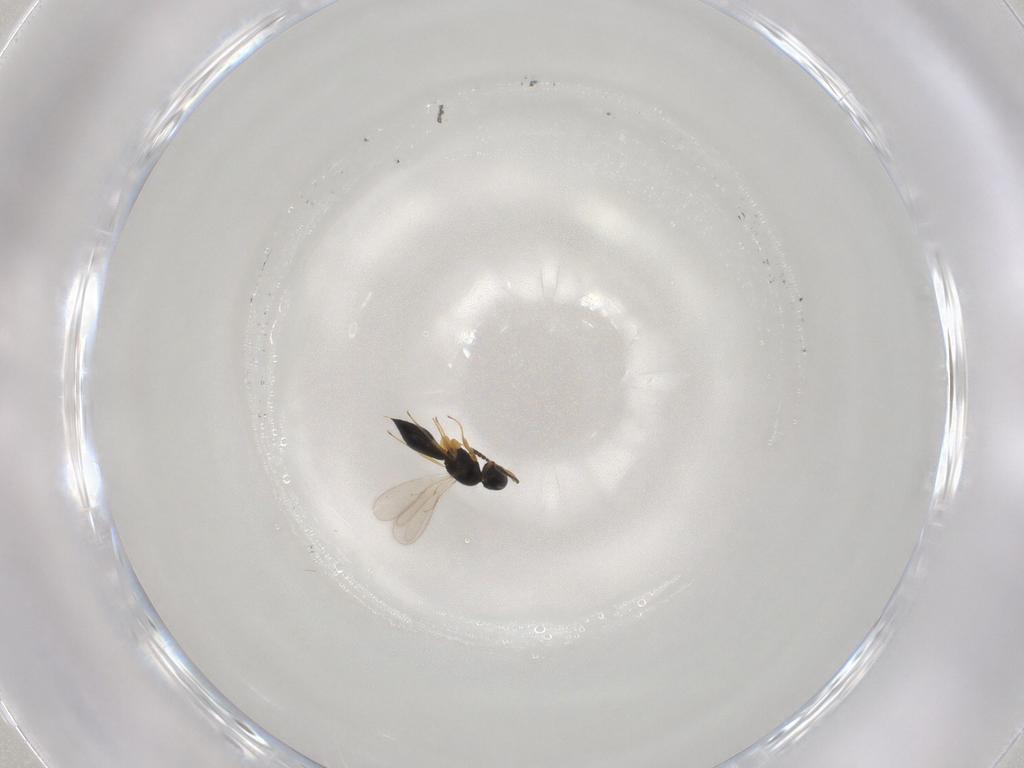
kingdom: Animalia
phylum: Arthropoda
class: Insecta
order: Hymenoptera
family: Scelionidae
